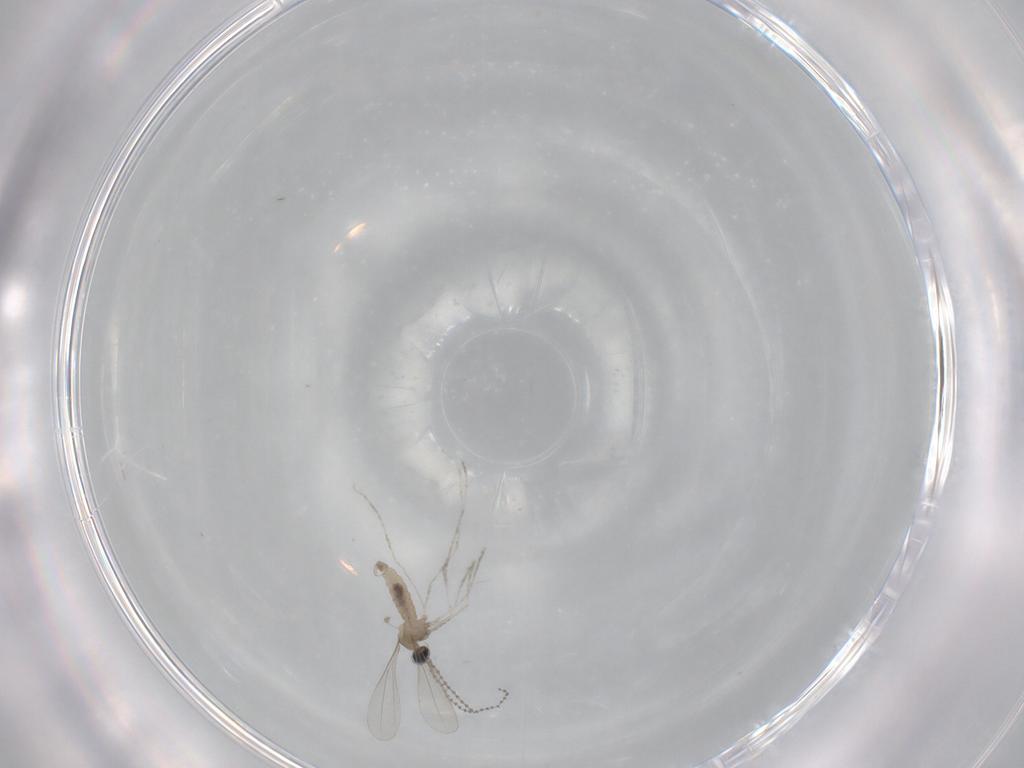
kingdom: Animalia
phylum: Arthropoda
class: Insecta
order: Diptera
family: Cecidomyiidae
